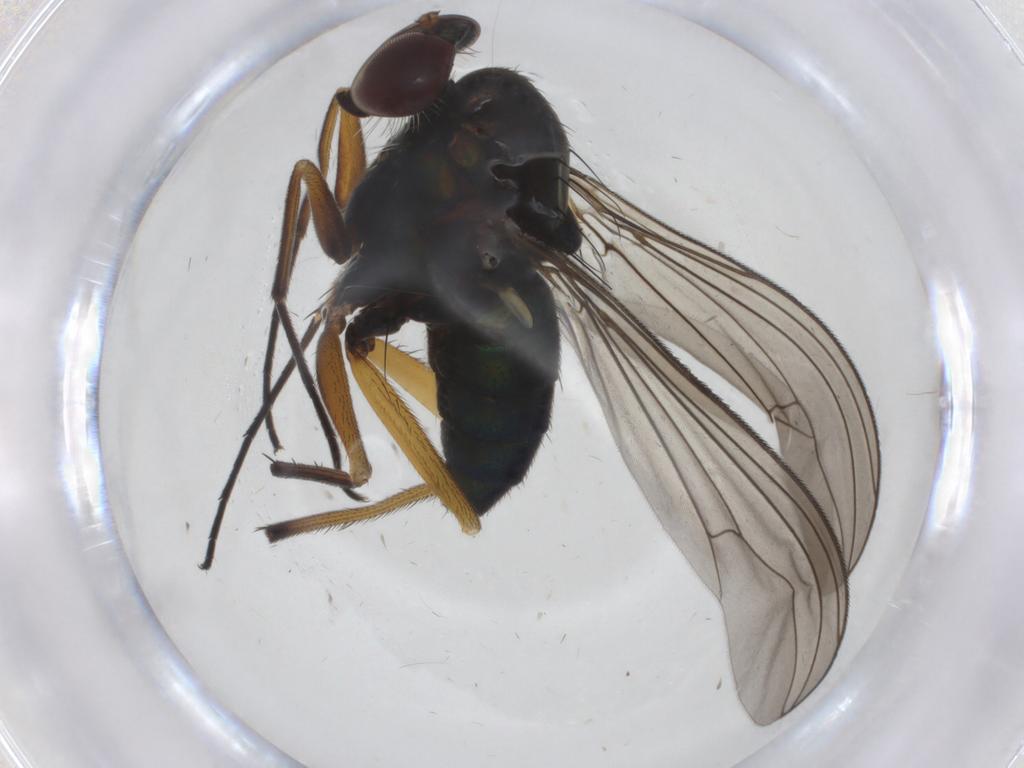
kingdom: Animalia
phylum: Arthropoda
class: Insecta
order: Diptera
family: Dolichopodidae
